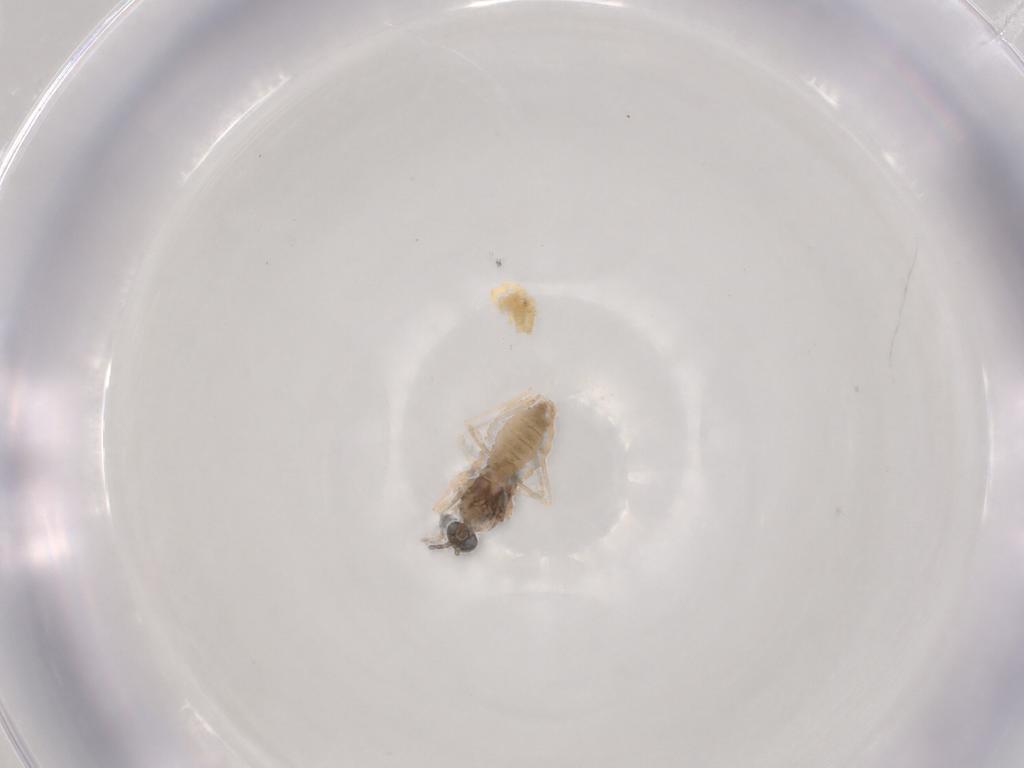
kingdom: Animalia
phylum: Arthropoda
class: Insecta
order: Diptera
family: Cecidomyiidae
